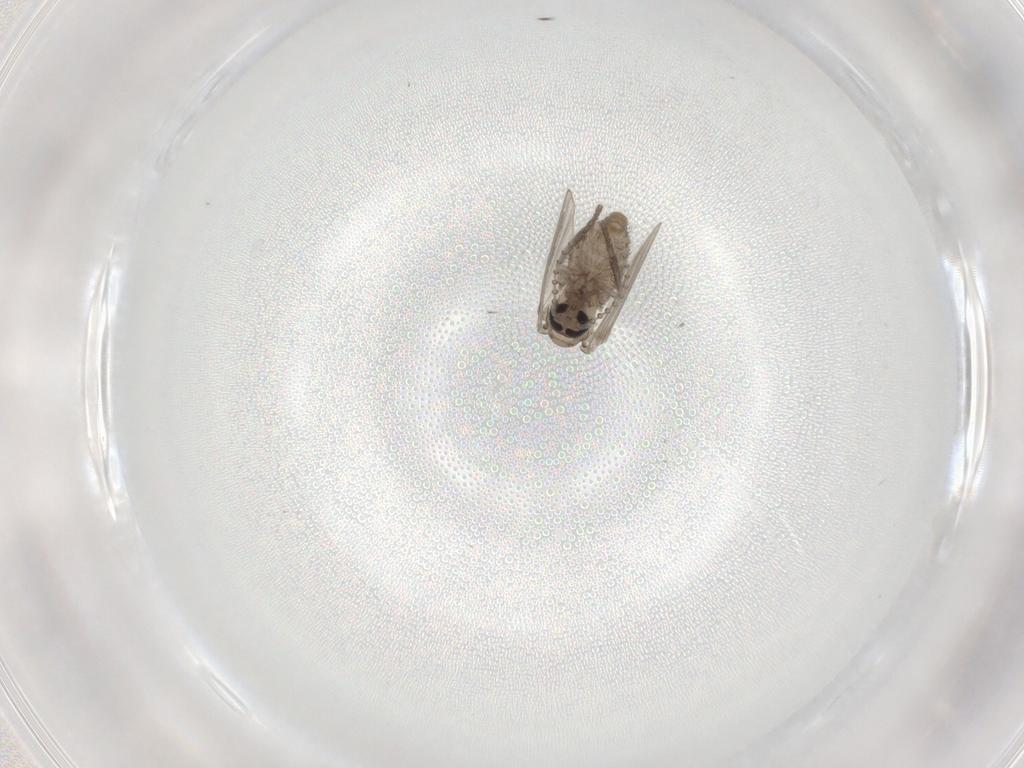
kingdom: Animalia
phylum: Arthropoda
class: Insecta
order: Diptera
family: Psychodidae
